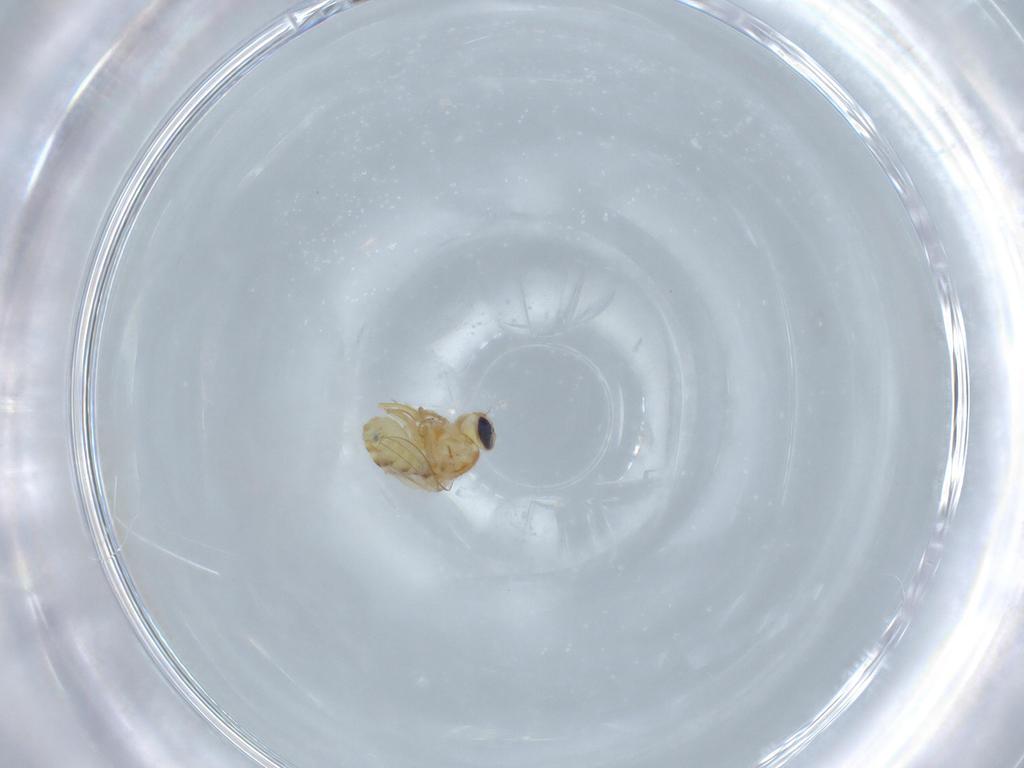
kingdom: Animalia
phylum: Arthropoda
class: Insecta
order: Diptera
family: Chyromyidae
